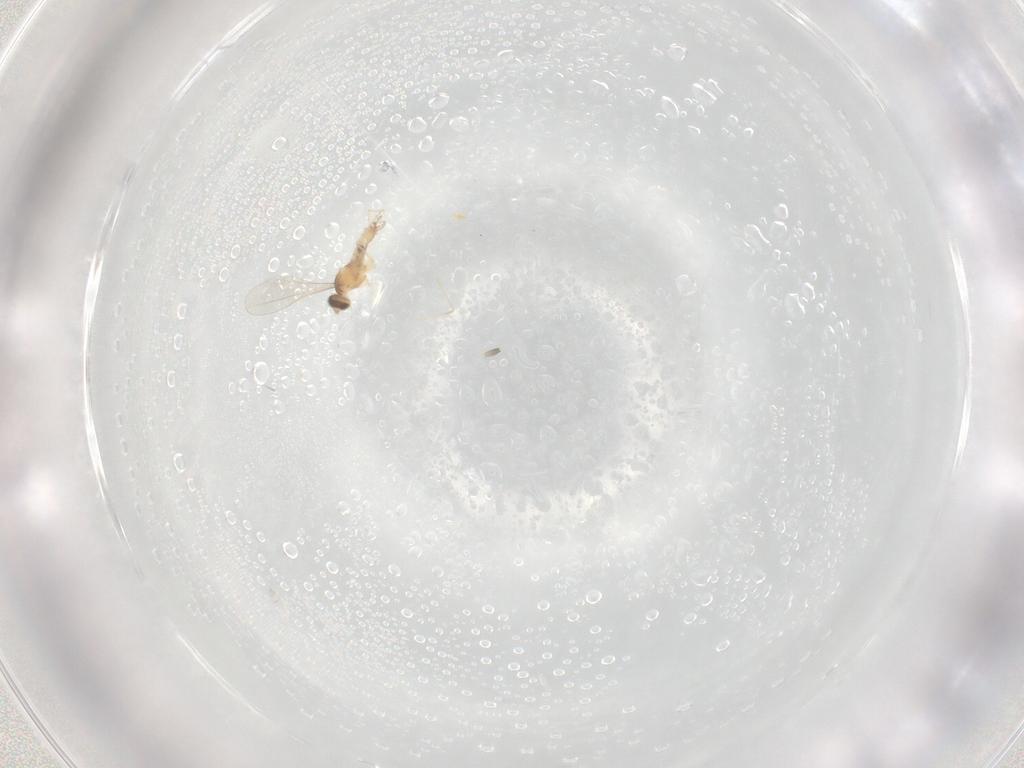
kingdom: Animalia
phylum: Arthropoda
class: Insecta
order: Diptera
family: Cecidomyiidae
